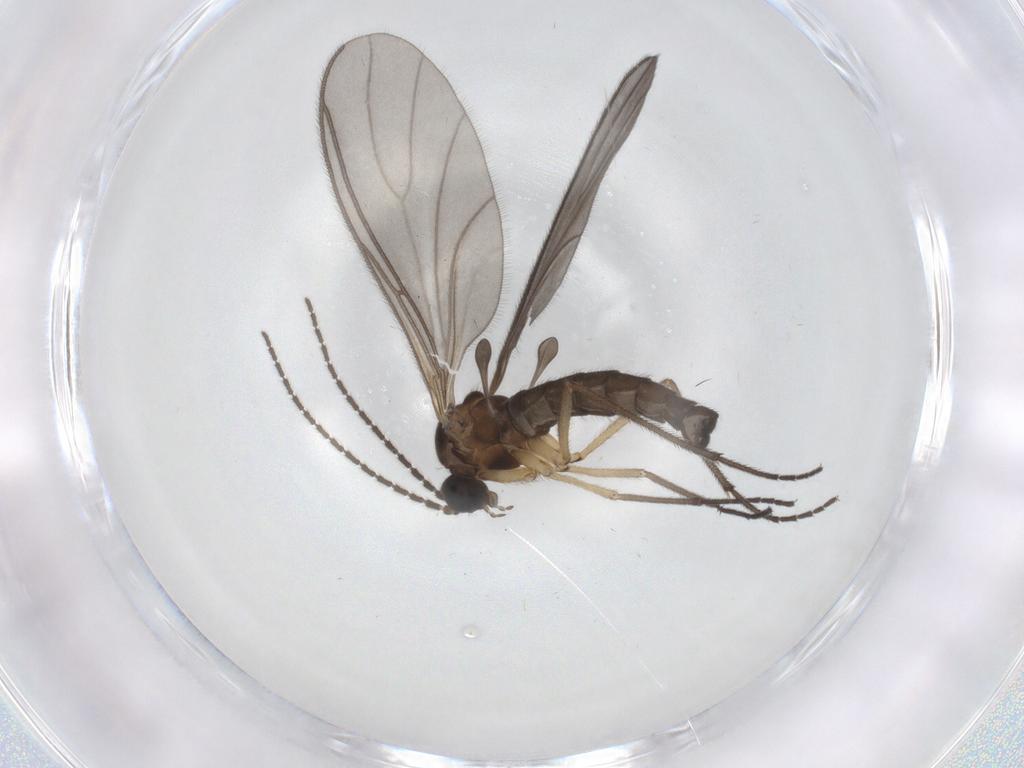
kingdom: Animalia
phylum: Arthropoda
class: Insecta
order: Diptera
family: Sciaridae
